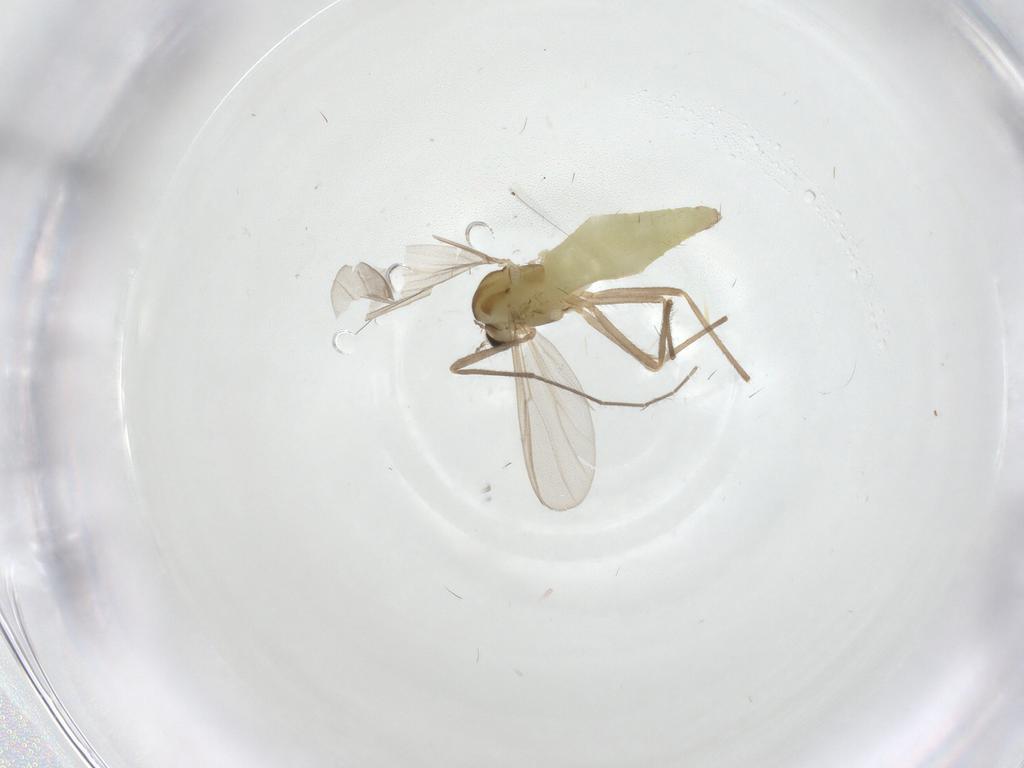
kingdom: Animalia
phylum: Arthropoda
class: Insecta
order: Diptera
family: Chironomidae
